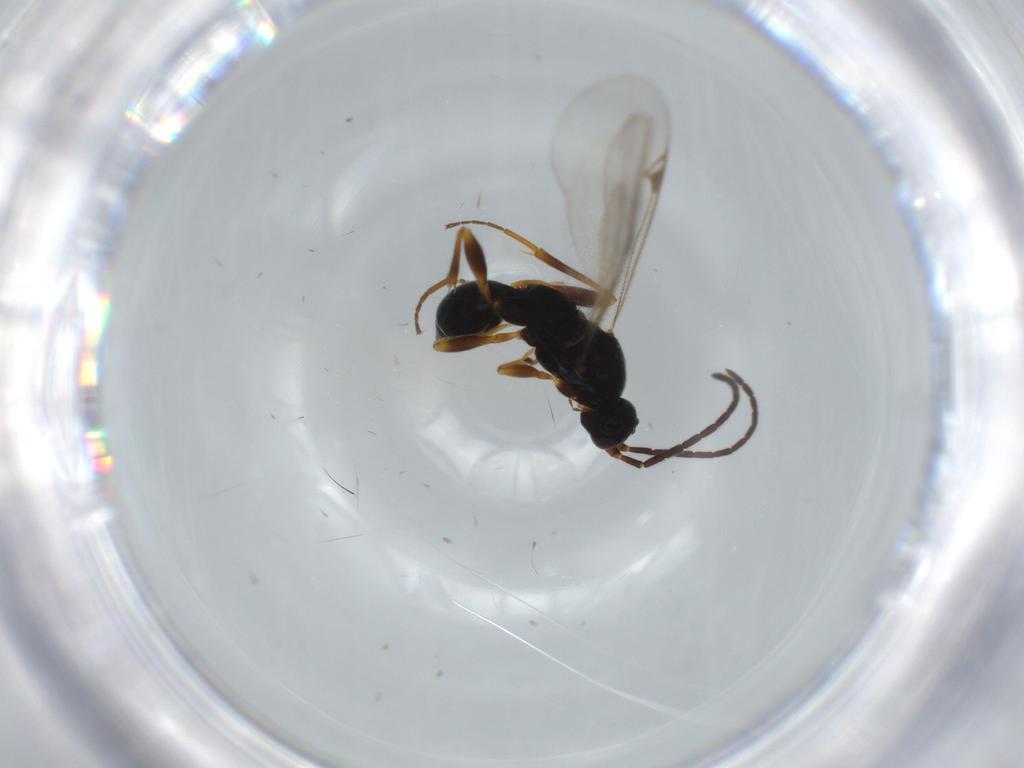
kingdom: Animalia
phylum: Arthropoda
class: Insecta
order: Hymenoptera
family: Proctotrupidae
